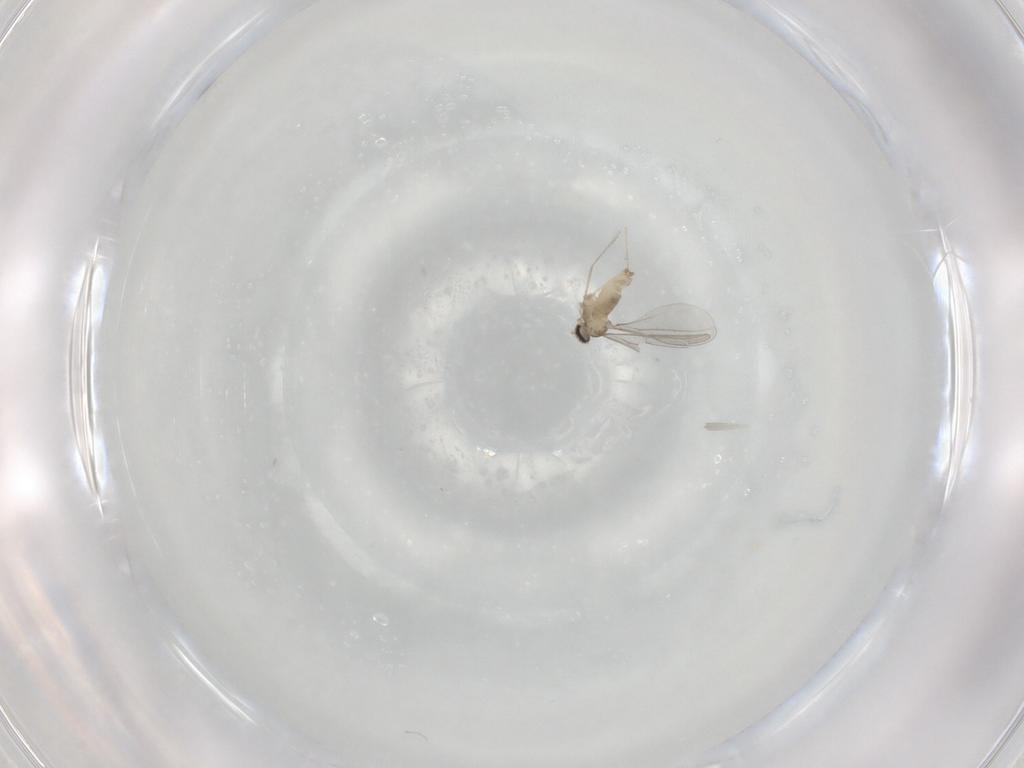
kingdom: Animalia
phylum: Arthropoda
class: Insecta
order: Diptera
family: Cecidomyiidae
